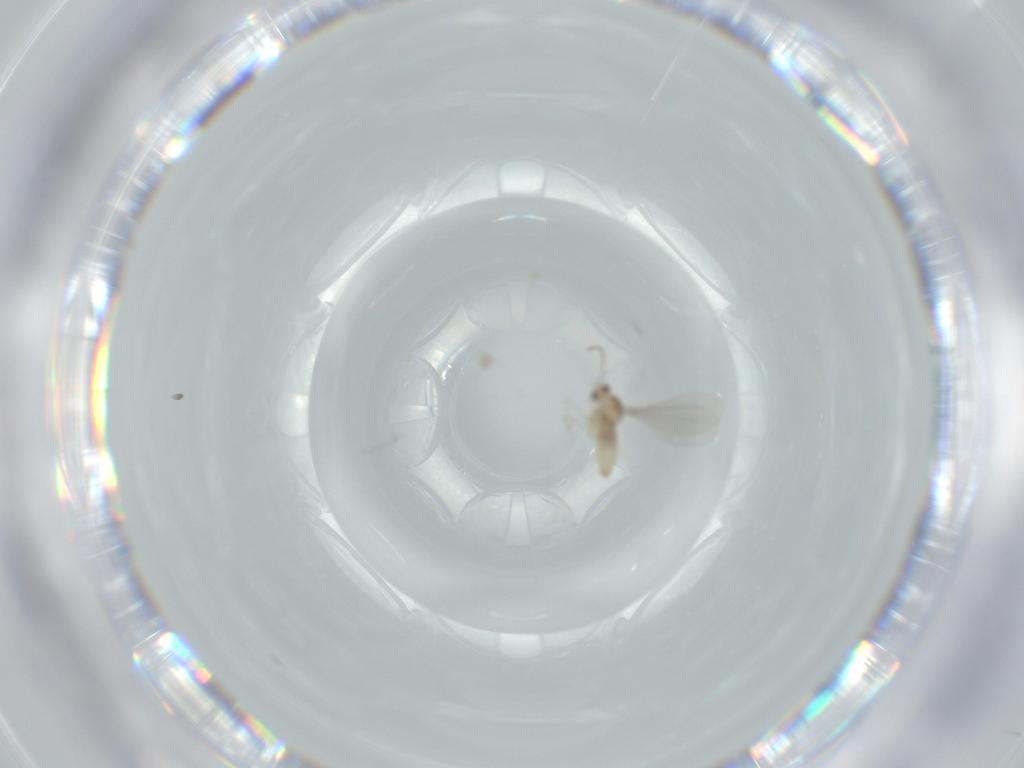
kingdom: Animalia
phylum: Arthropoda
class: Insecta
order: Diptera
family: Cecidomyiidae
